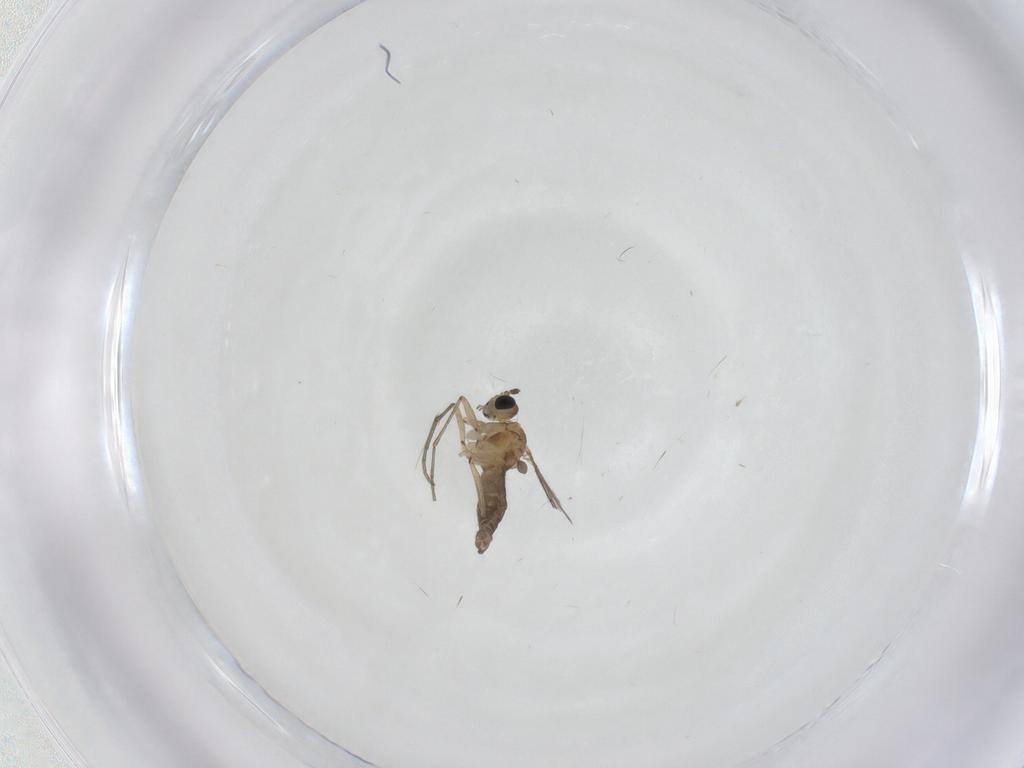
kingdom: Animalia
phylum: Arthropoda
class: Insecta
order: Diptera
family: Sciaridae
